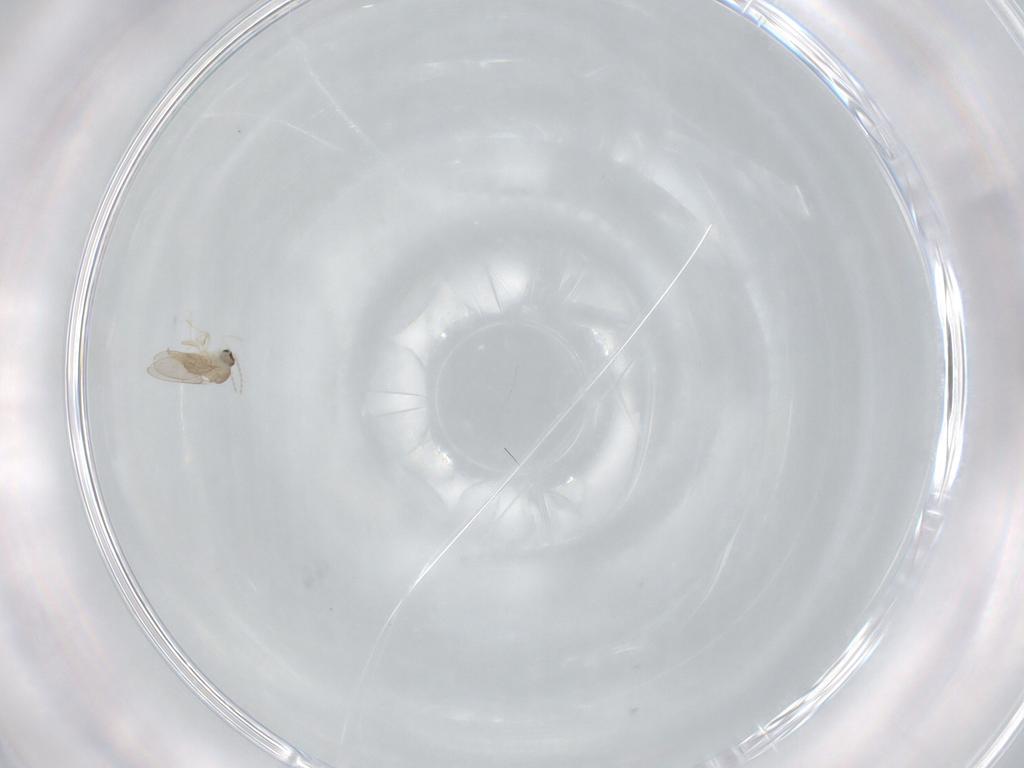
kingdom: Animalia
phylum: Arthropoda
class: Insecta
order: Diptera
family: Cecidomyiidae
